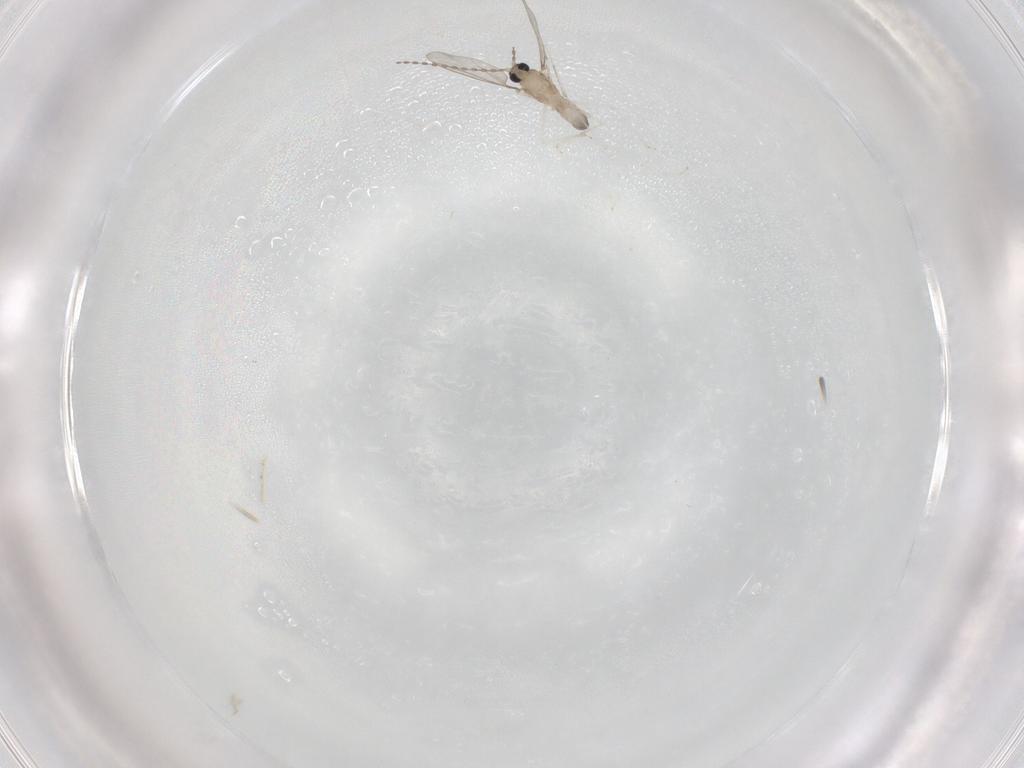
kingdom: Animalia
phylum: Arthropoda
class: Insecta
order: Diptera
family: Cecidomyiidae
